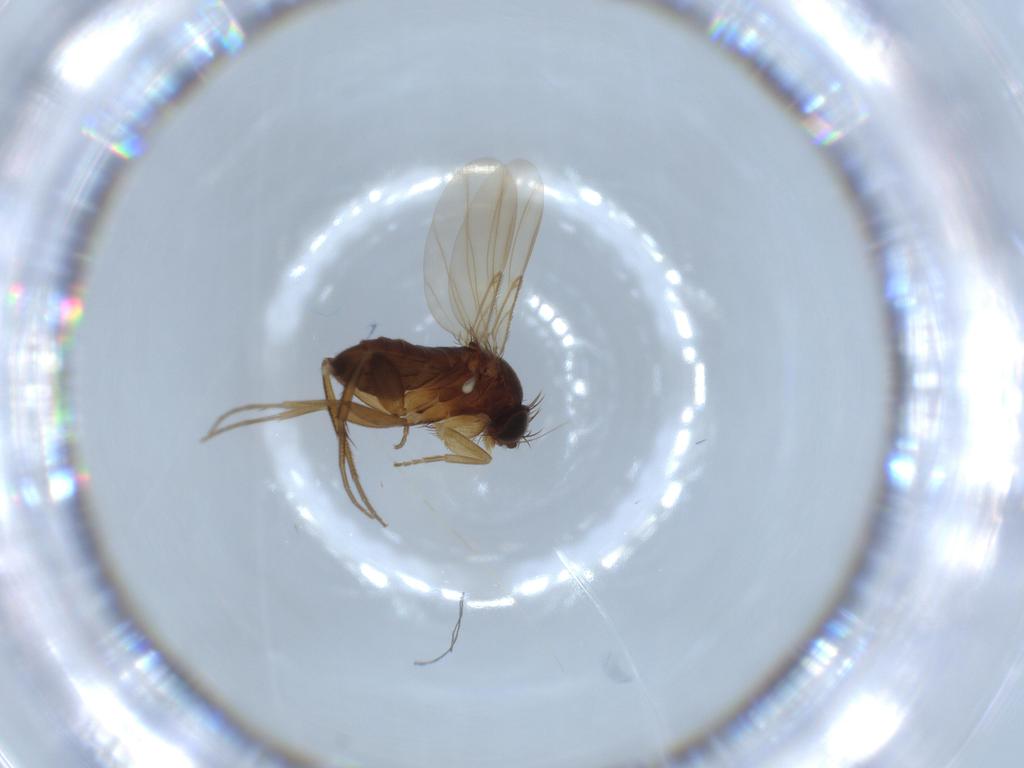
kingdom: Animalia
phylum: Arthropoda
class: Insecta
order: Diptera
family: Phoridae
